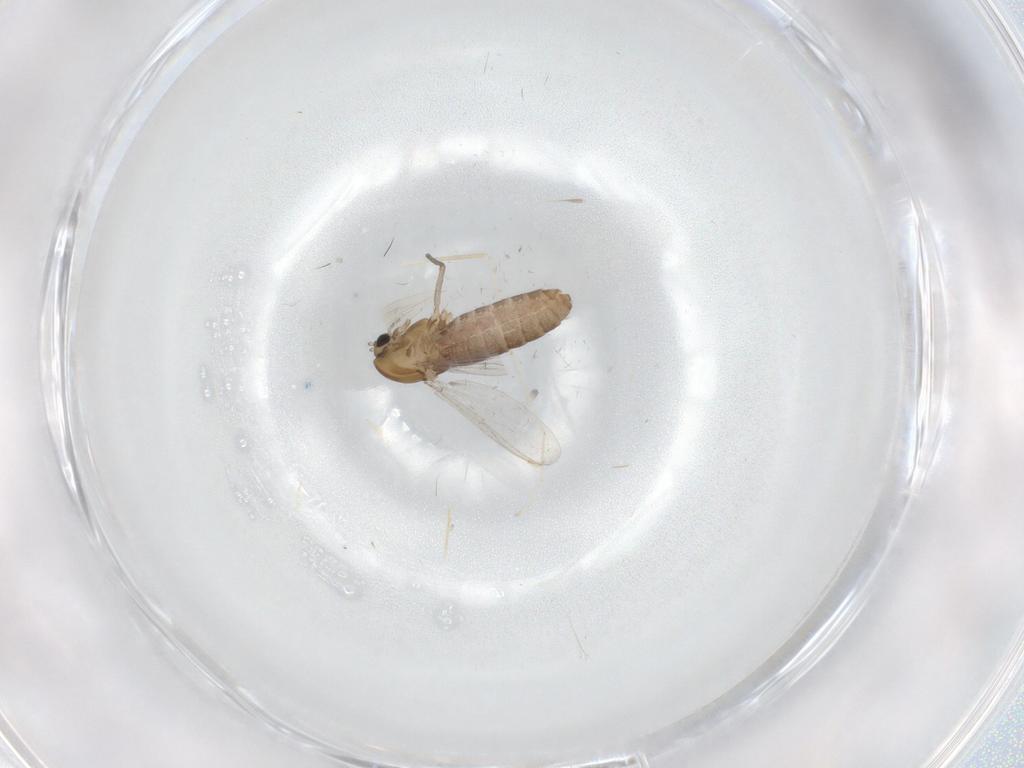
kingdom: Animalia
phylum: Arthropoda
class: Insecta
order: Diptera
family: Chironomidae
